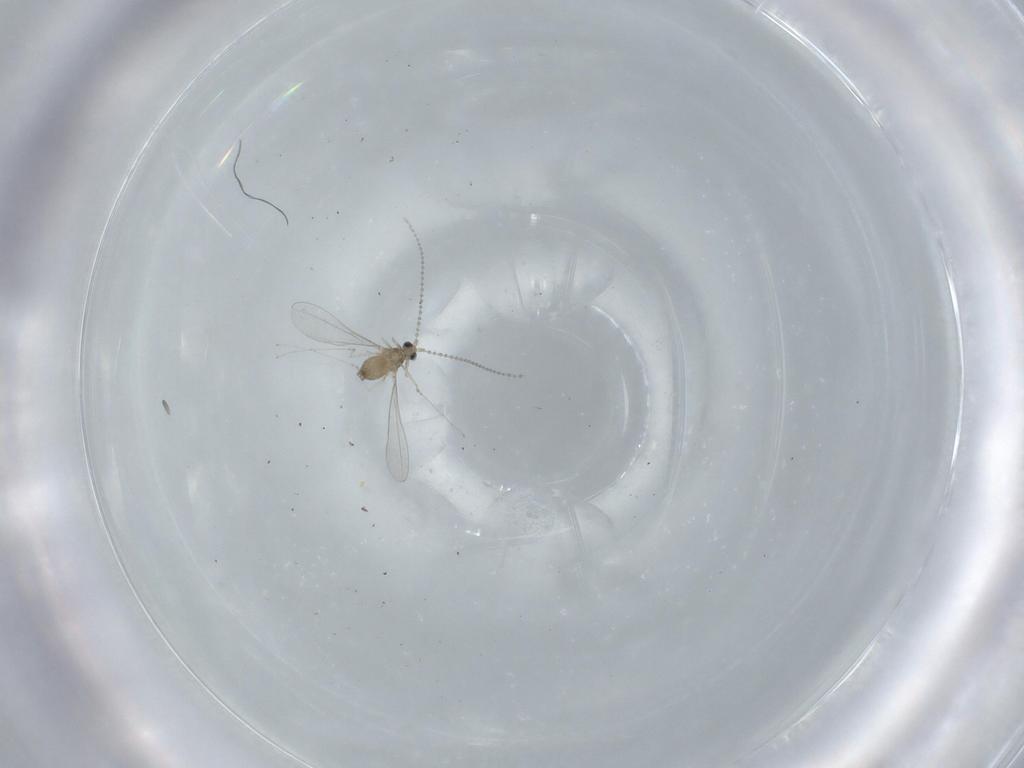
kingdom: Animalia
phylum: Arthropoda
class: Insecta
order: Diptera
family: Cecidomyiidae
